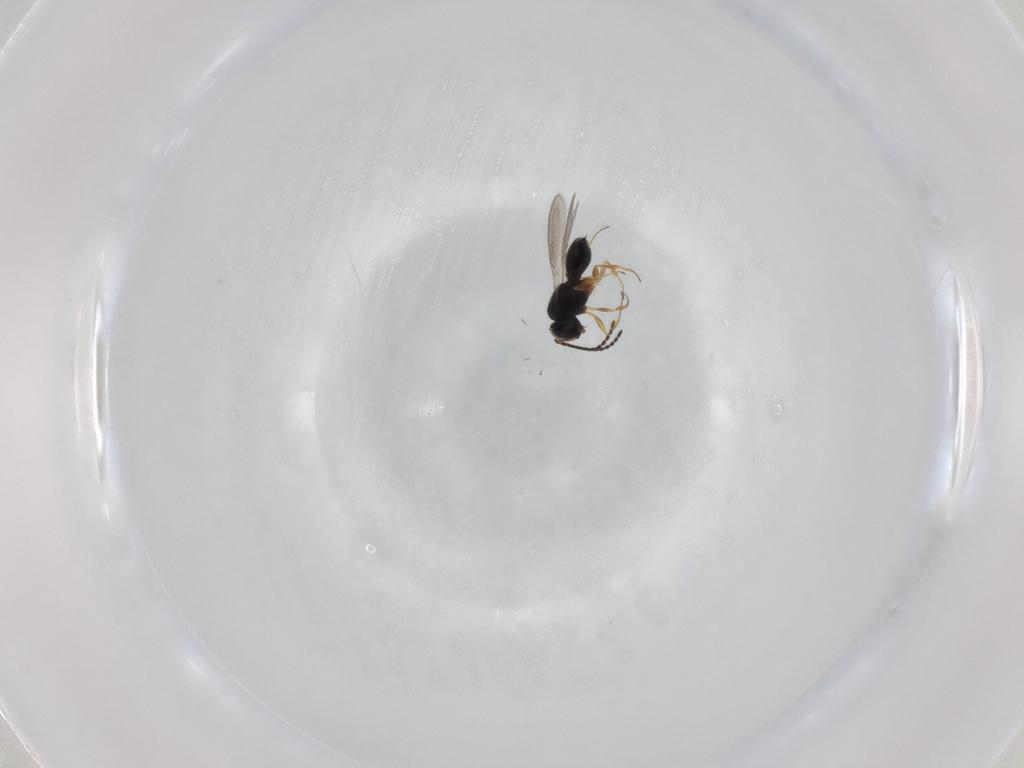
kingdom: Animalia
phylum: Arthropoda
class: Insecta
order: Hymenoptera
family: Scelionidae
